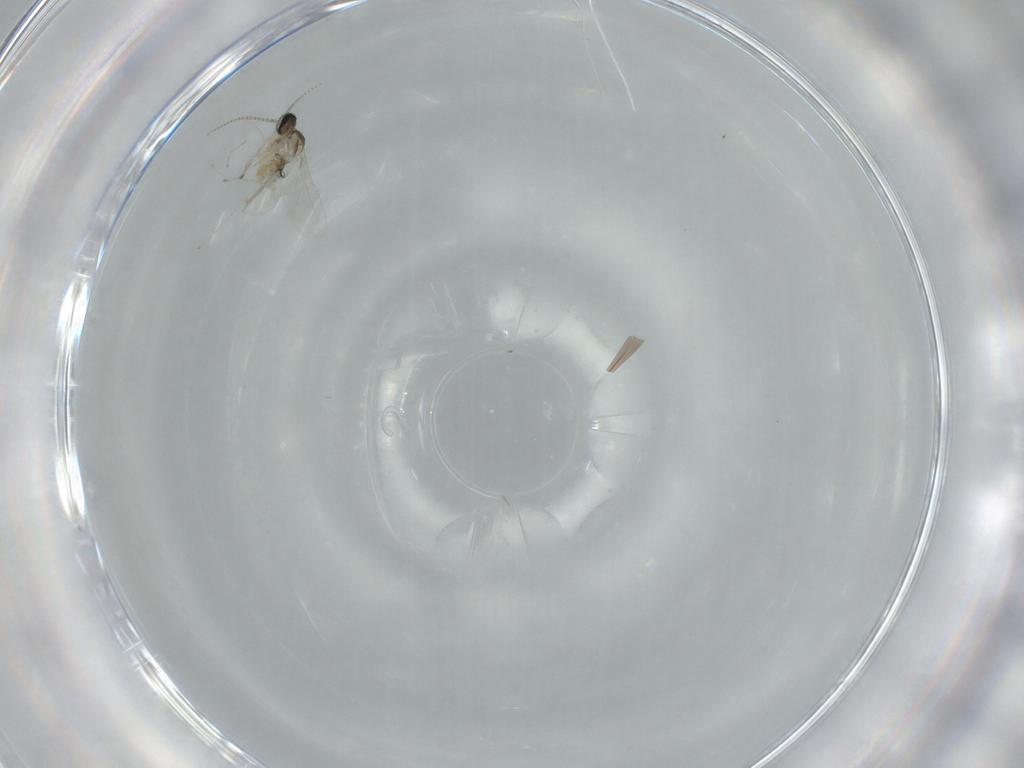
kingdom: Animalia
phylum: Arthropoda
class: Insecta
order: Diptera
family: Cecidomyiidae
